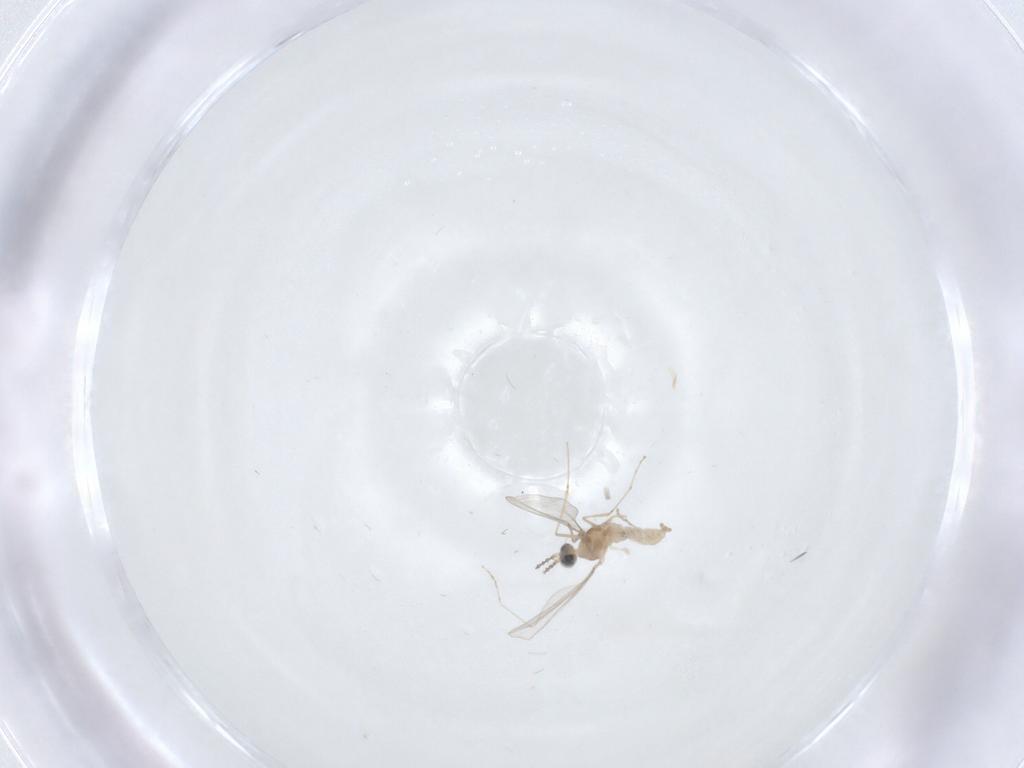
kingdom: Animalia
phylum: Arthropoda
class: Insecta
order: Diptera
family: Cecidomyiidae
